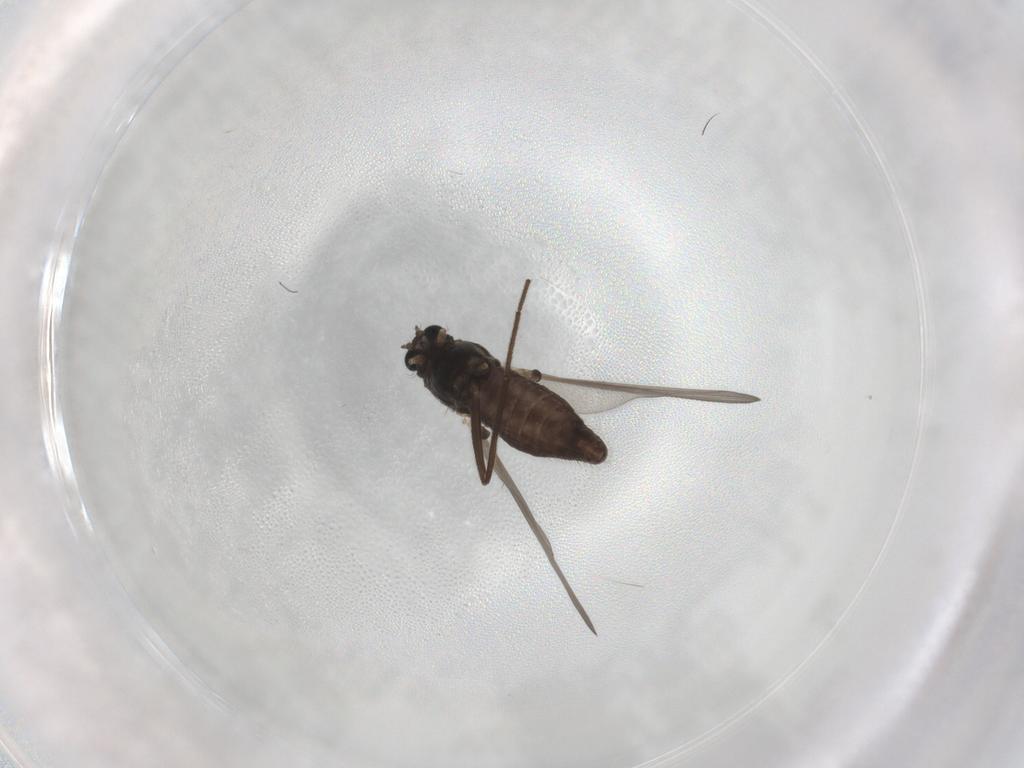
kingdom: Animalia
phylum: Arthropoda
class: Insecta
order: Diptera
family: Chironomidae
